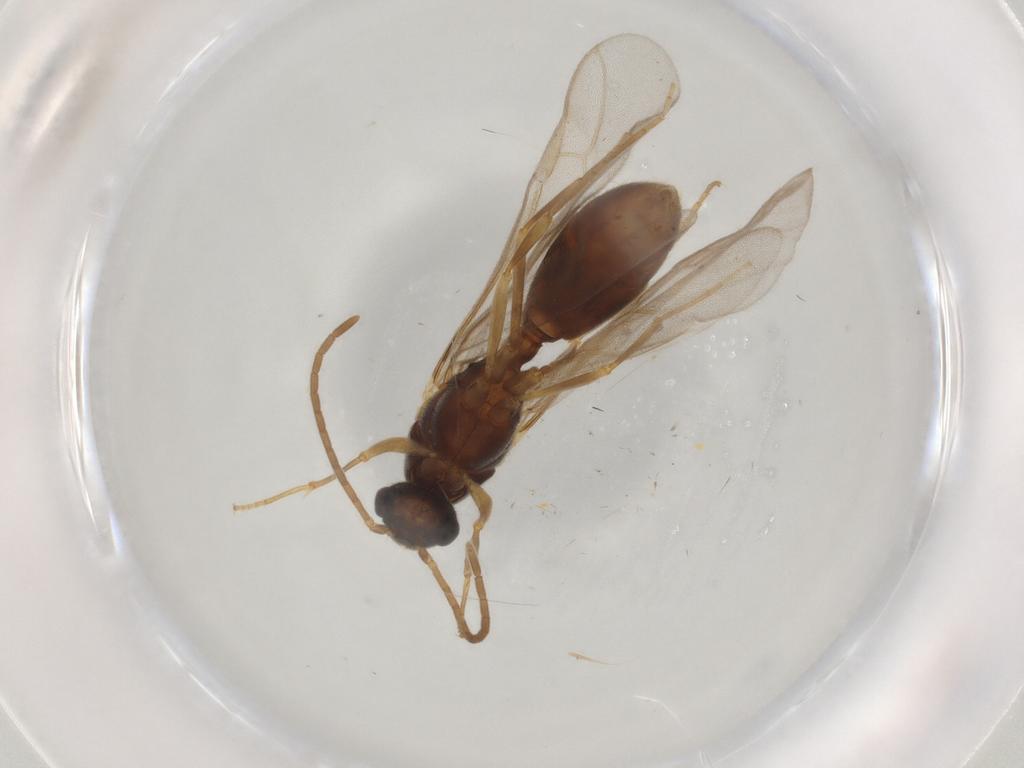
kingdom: Animalia
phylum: Arthropoda
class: Insecta
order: Hymenoptera
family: Formicidae
